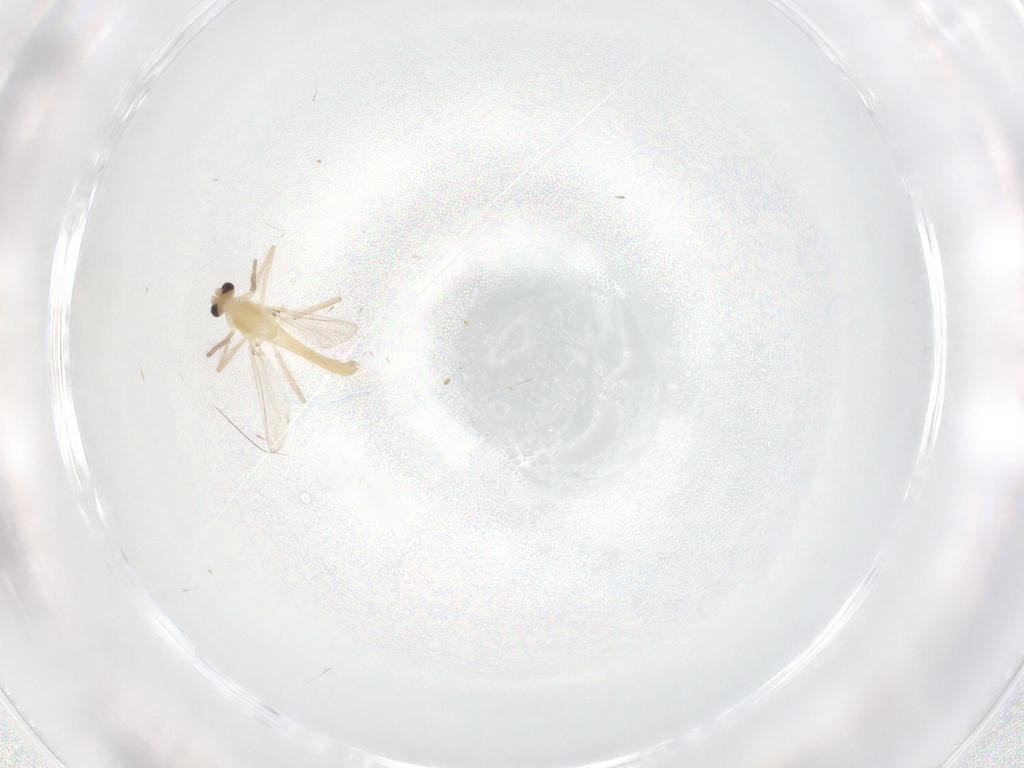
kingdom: Animalia
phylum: Arthropoda
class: Insecta
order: Diptera
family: Chironomidae
